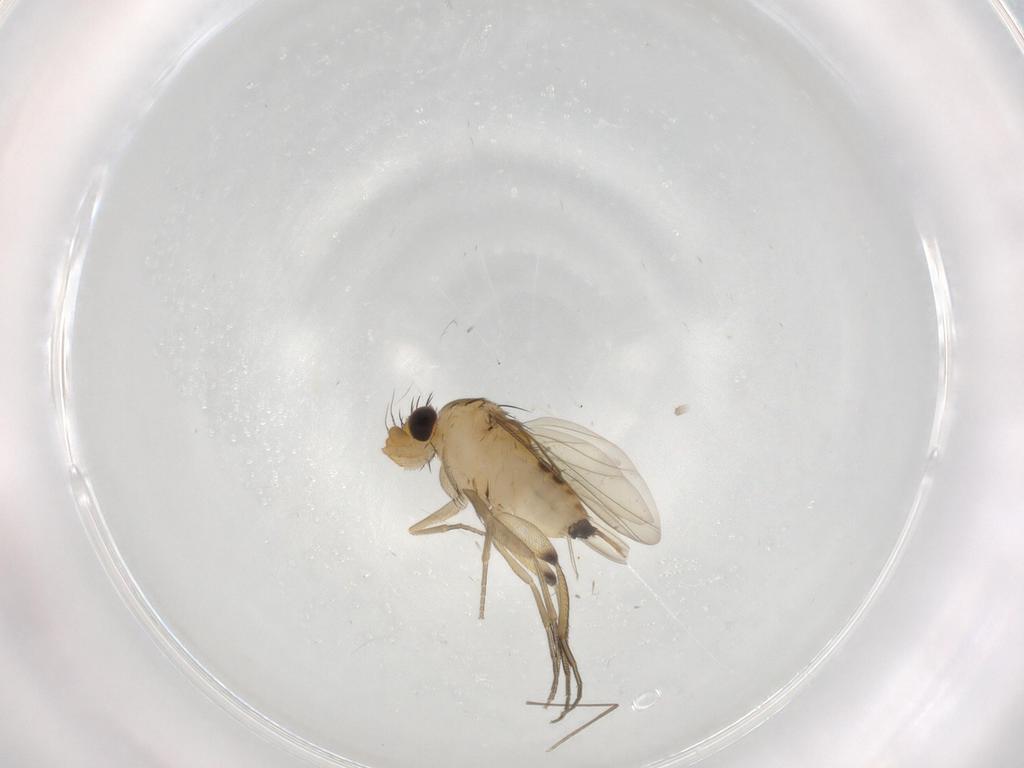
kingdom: Animalia
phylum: Arthropoda
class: Insecta
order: Diptera
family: Phoridae
